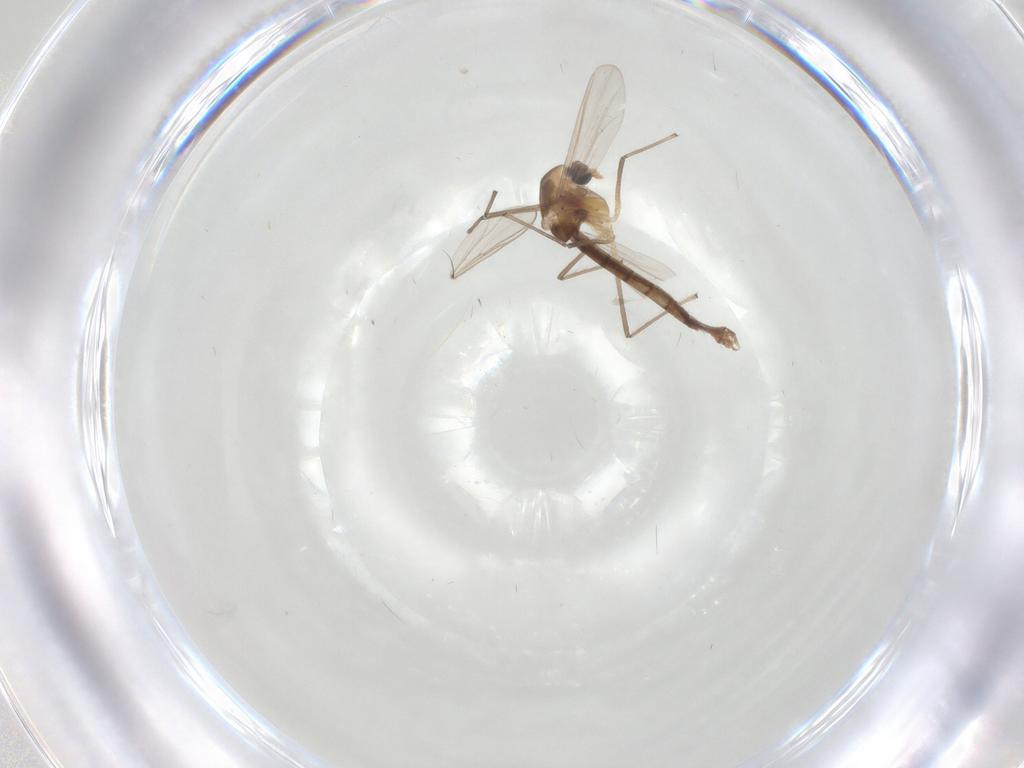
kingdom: Animalia
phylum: Arthropoda
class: Insecta
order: Diptera
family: Chironomidae
